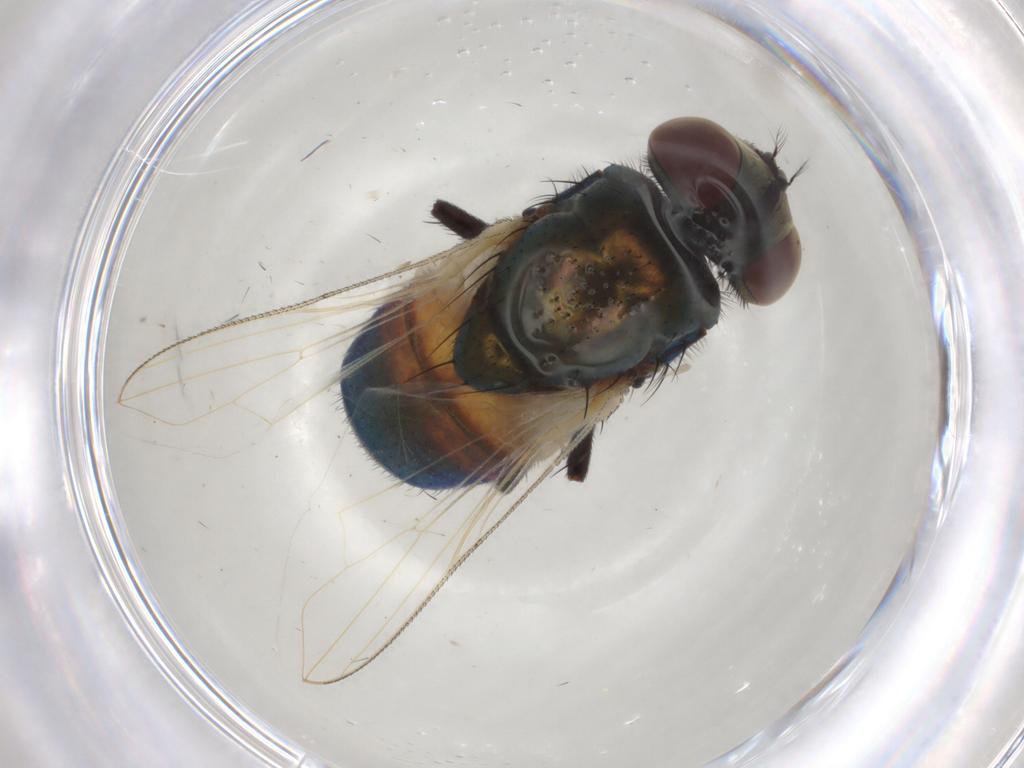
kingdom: Animalia
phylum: Arthropoda
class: Insecta
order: Diptera
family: Muscidae
